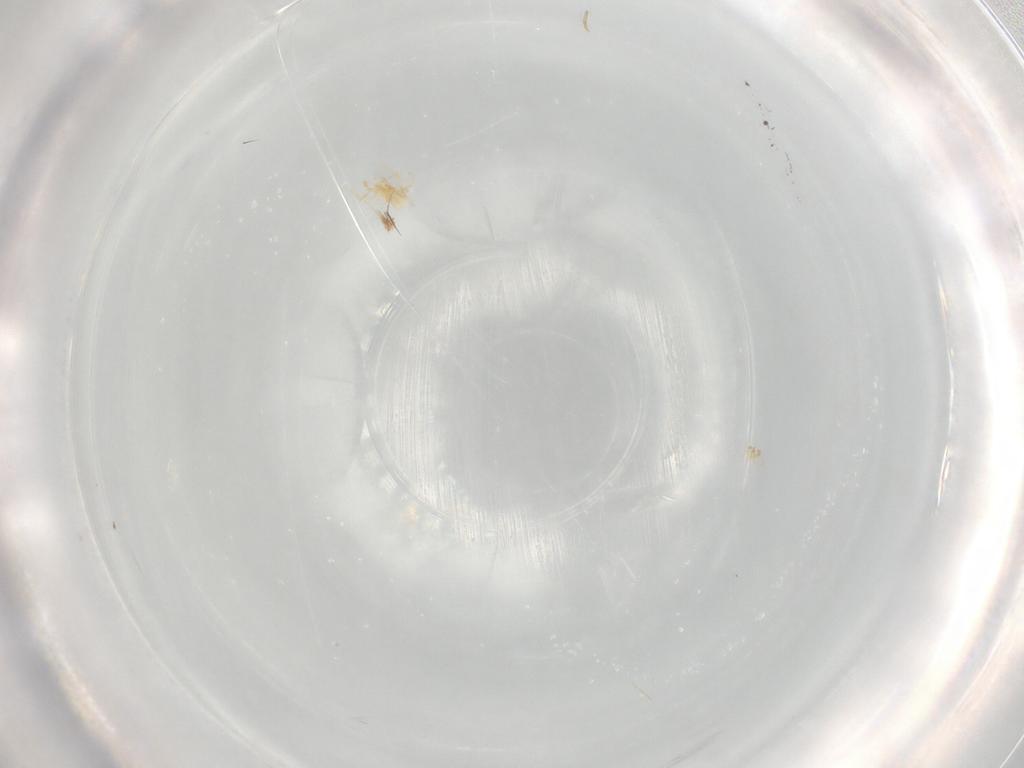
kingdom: Animalia
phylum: Arthropoda
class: Arachnida
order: Trombidiformes
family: Erythraeidae
